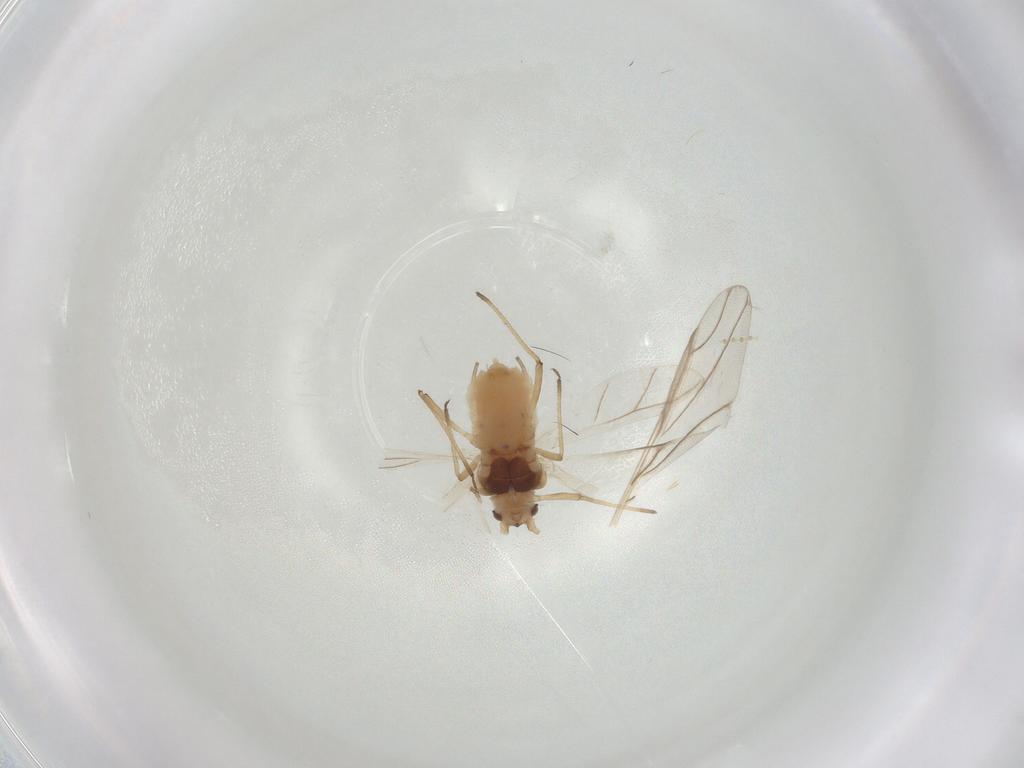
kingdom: Animalia
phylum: Arthropoda
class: Insecta
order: Hemiptera
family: Aphididae
